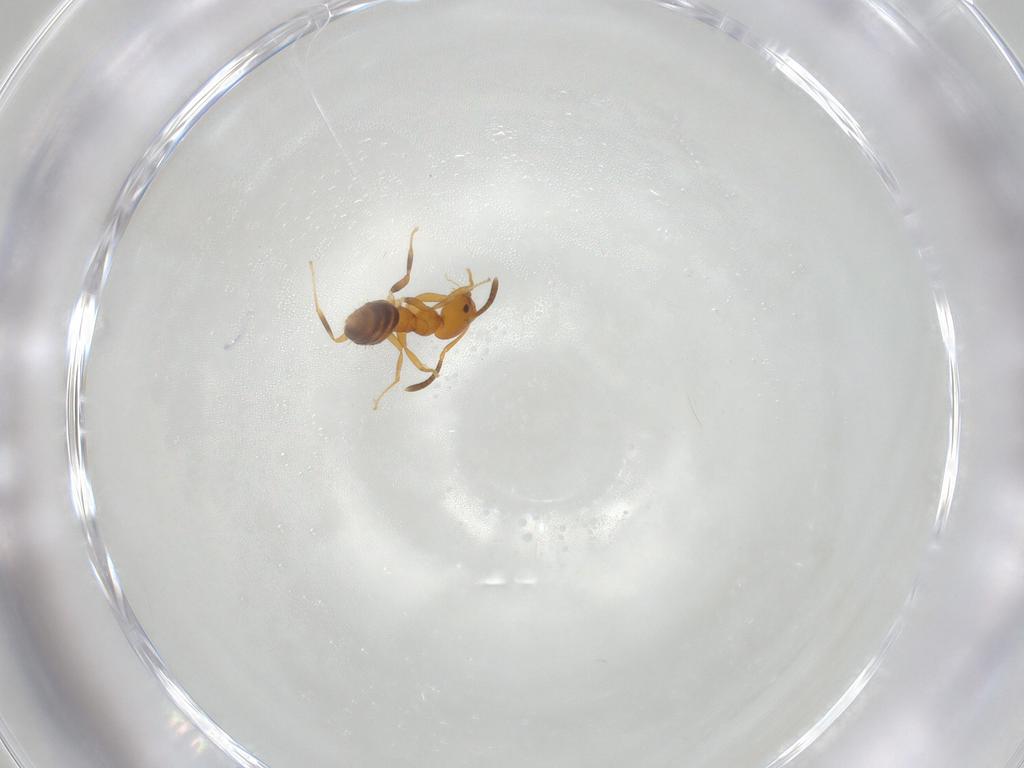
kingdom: Animalia
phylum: Arthropoda
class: Insecta
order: Hymenoptera
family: Formicidae
